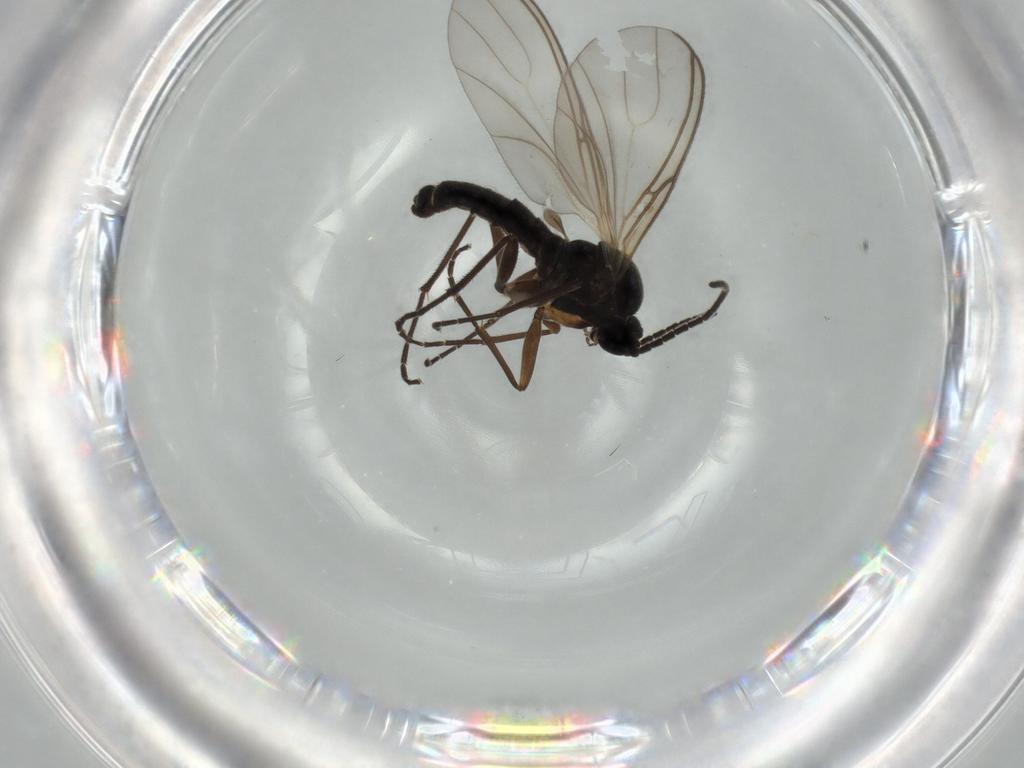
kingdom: Animalia
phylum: Arthropoda
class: Insecta
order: Diptera
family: Sciaridae
